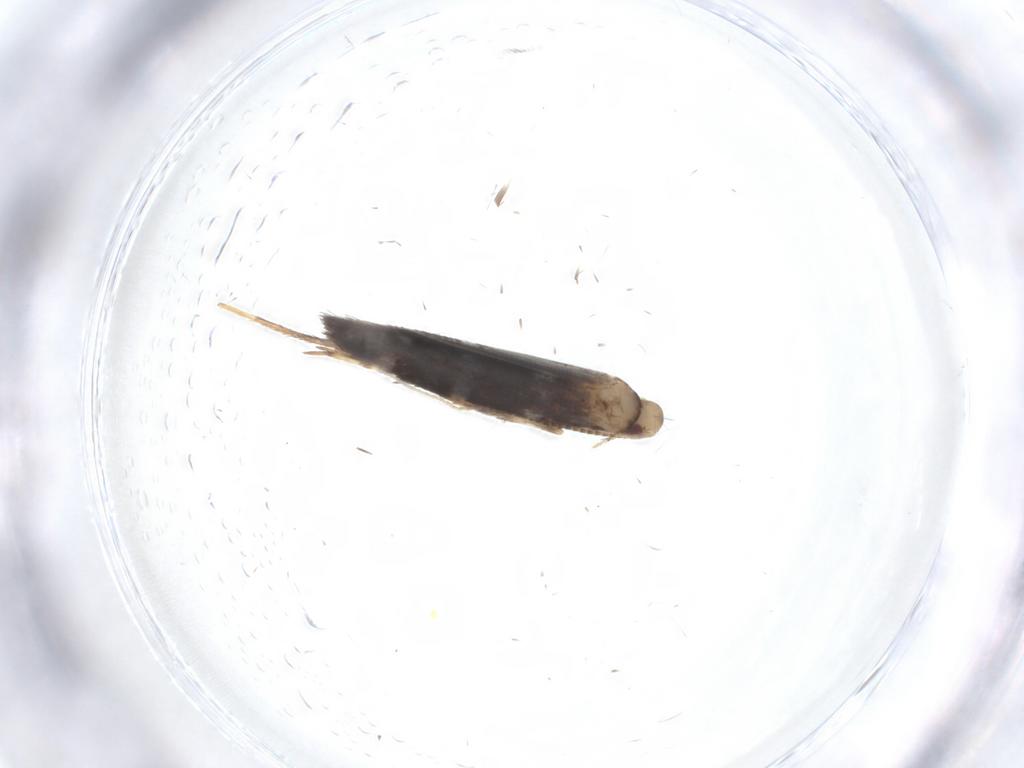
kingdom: Animalia
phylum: Arthropoda
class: Insecta
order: Lepidoptera
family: Gracillariidae
